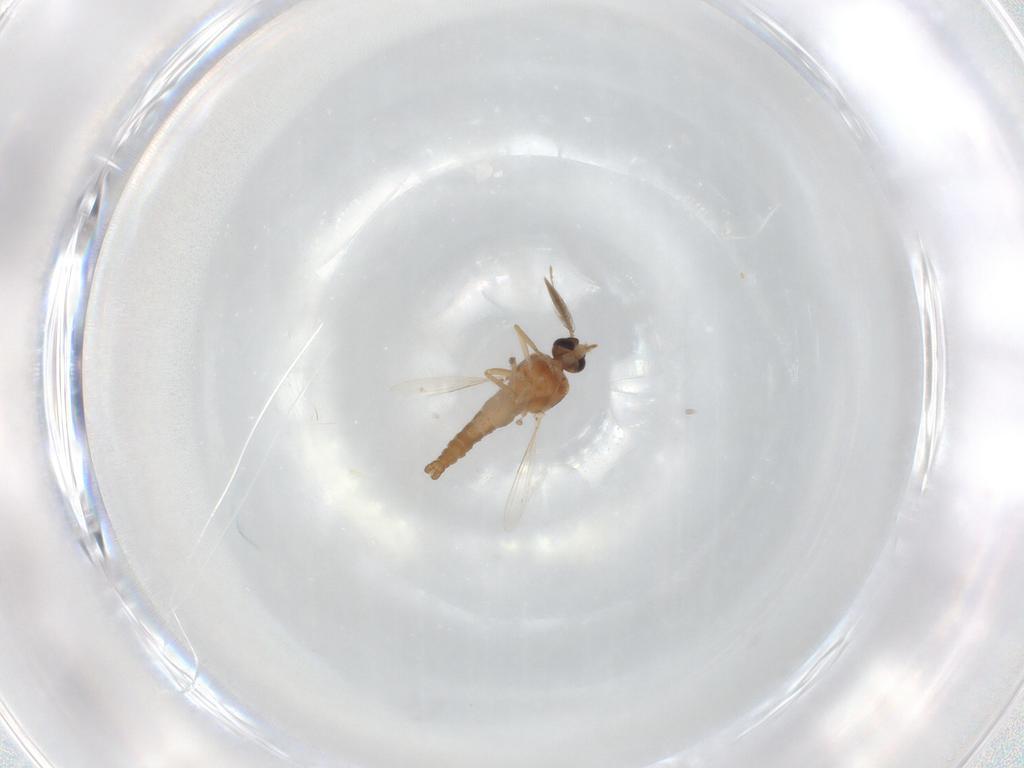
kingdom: Animalia
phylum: Arthropoda
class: Insecta
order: Diptera
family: Ceratopogonidae
